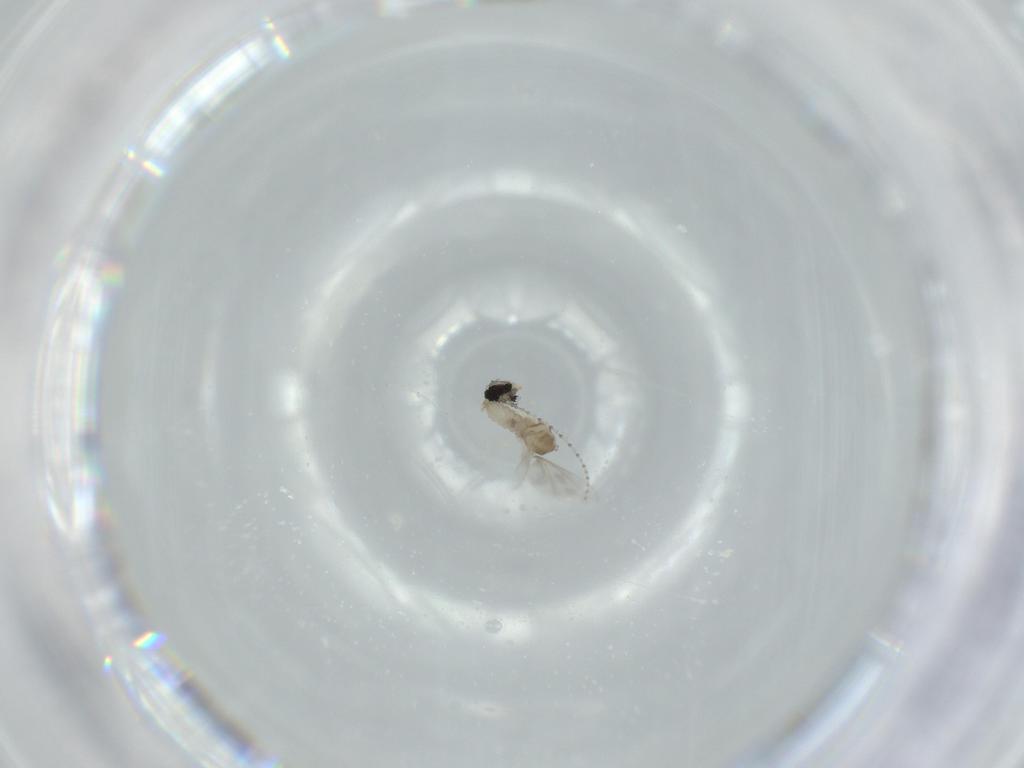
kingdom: Animalia
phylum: Arthropoda
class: Insecta
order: Diptera
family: Cecidomyiidae
